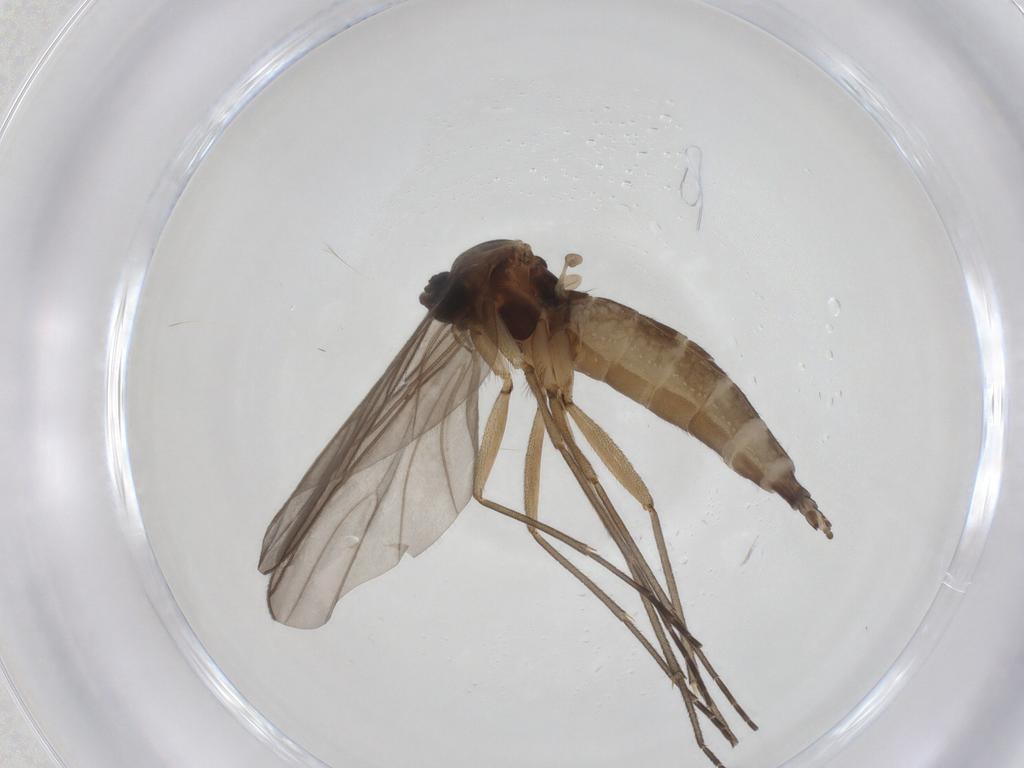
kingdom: Animalia
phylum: Arthropoda
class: Insecta
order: Diptera
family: Sciaridae
